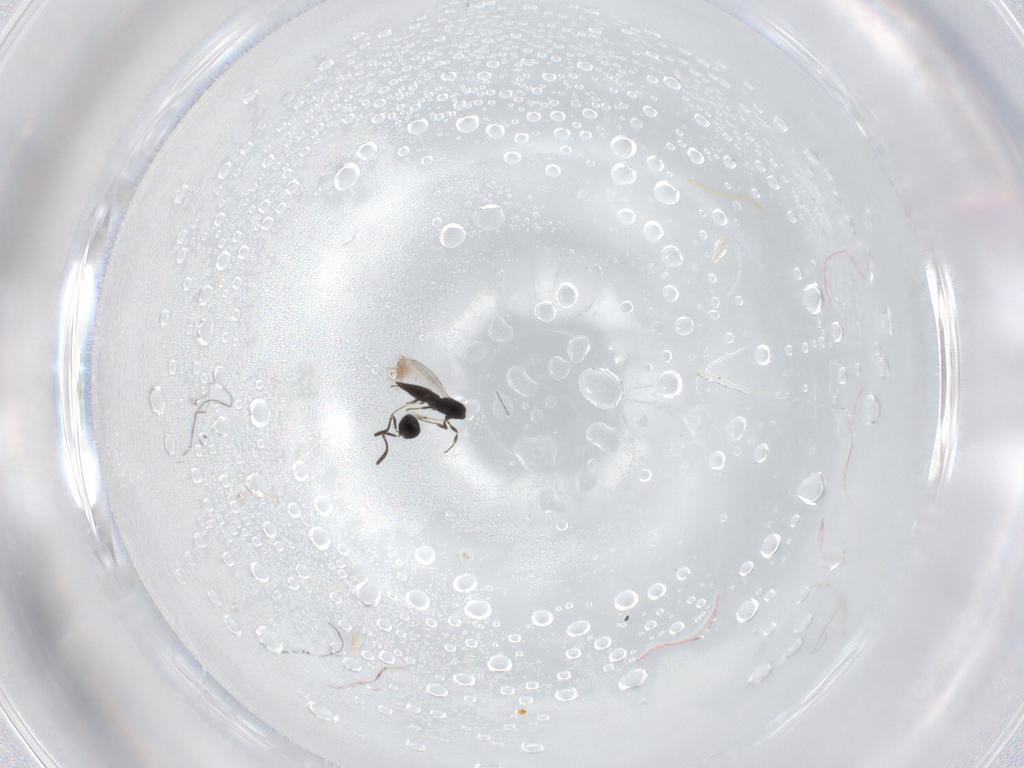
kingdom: Animalia
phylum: Arthropoda
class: Insecta
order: Hymenoptera
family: Scelionidae
